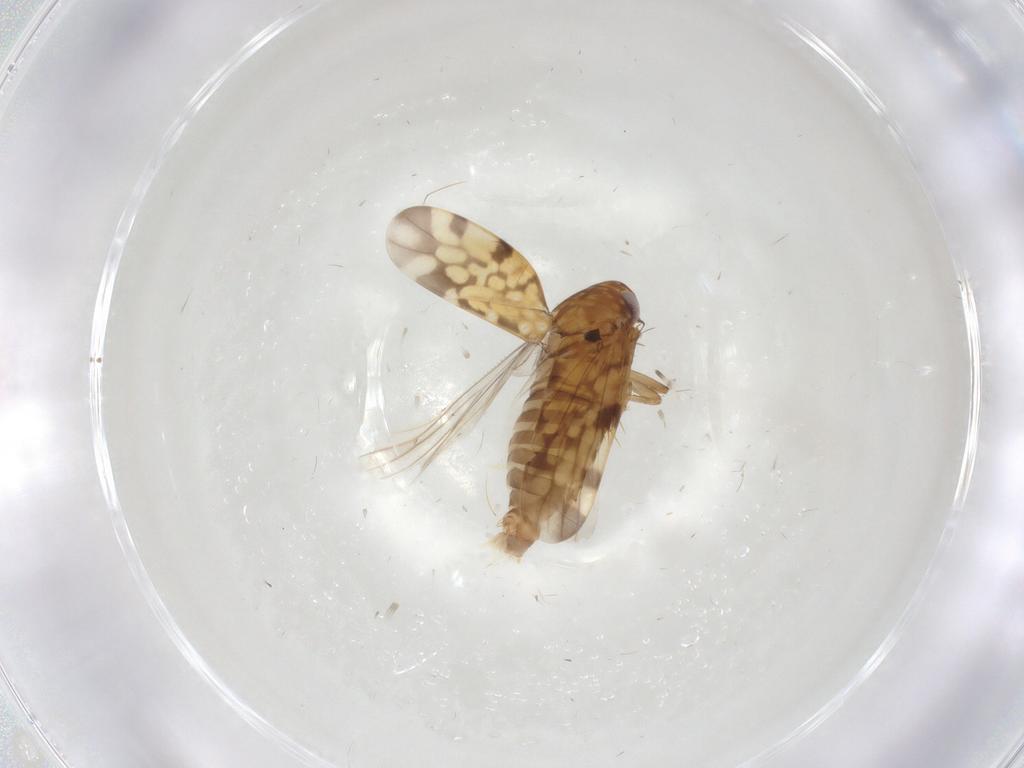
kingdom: Animalia
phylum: Arthropoda
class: Insecta
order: Hemiptera
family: Cicadellidae
